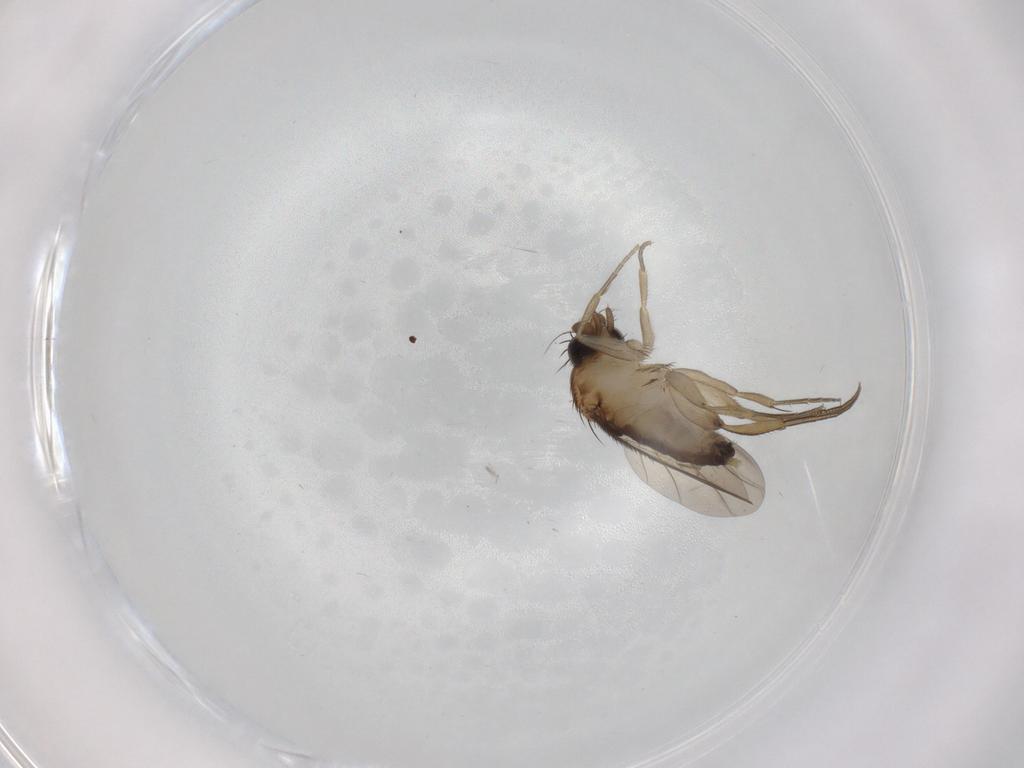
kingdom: Animalia
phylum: Arthropoda
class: Insecta
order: Diptera
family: Phoridae
